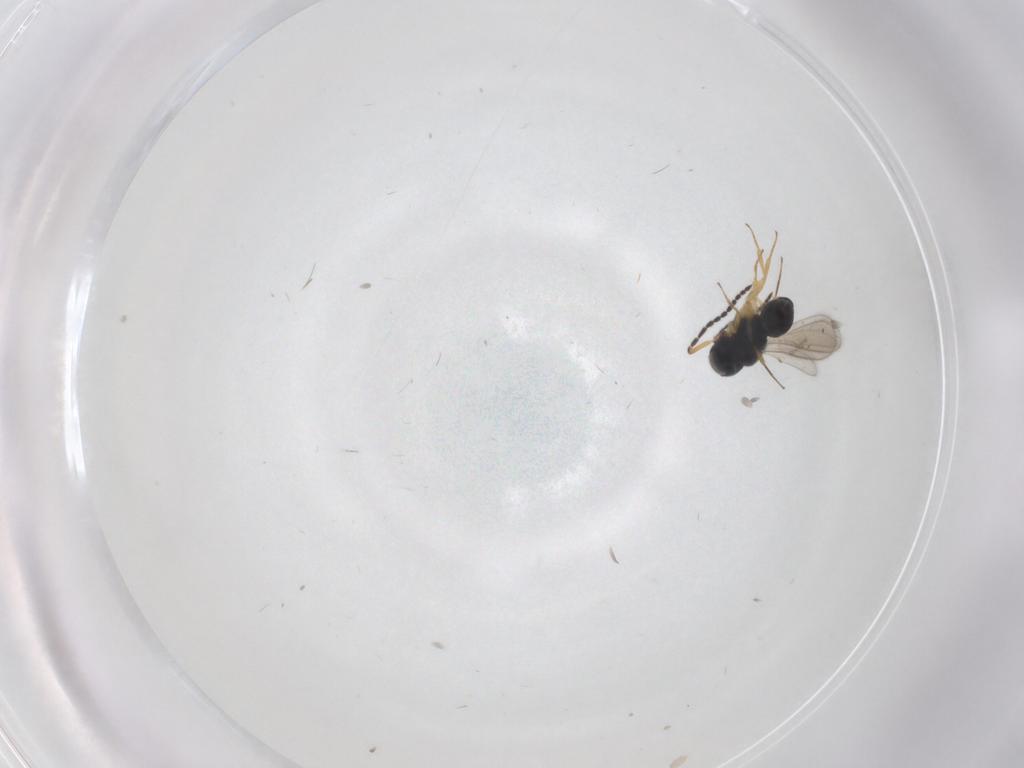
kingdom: Animalia
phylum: Arthropoda
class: Insecta
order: Hymenoptera
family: Scelionidae
